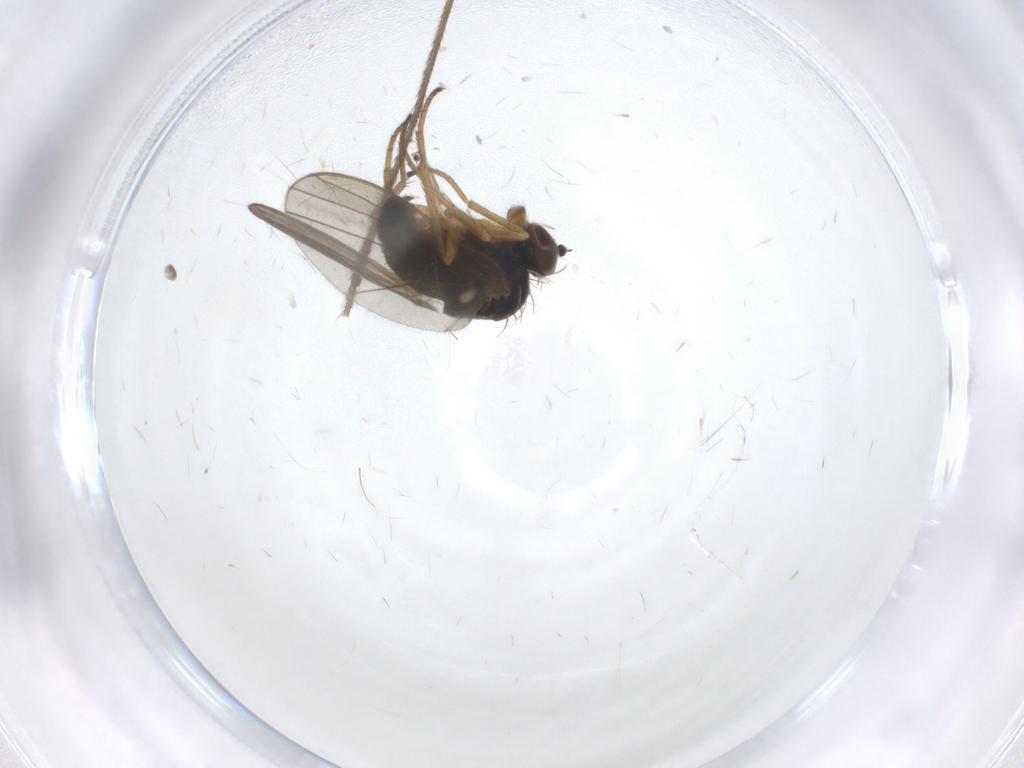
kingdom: Animalia
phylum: Arthropoda
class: Insecta
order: Diptera
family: Dolichopodidae
